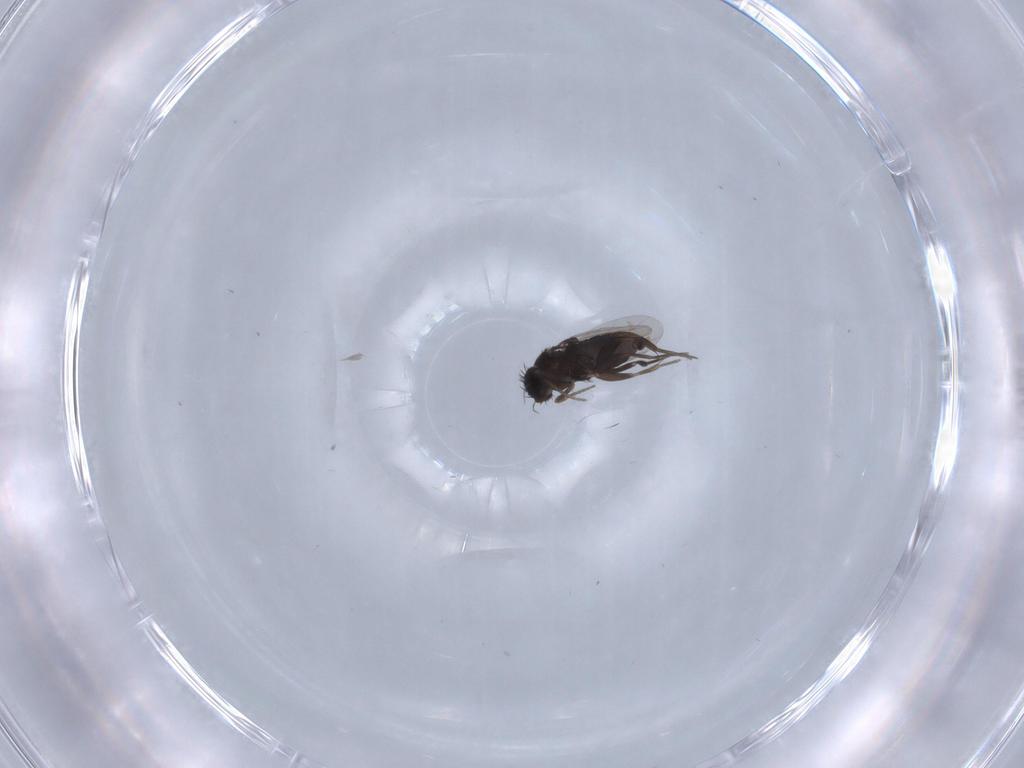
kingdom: Animalia
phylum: Arthropoda
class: Insecta
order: Diptera
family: Phoridae
